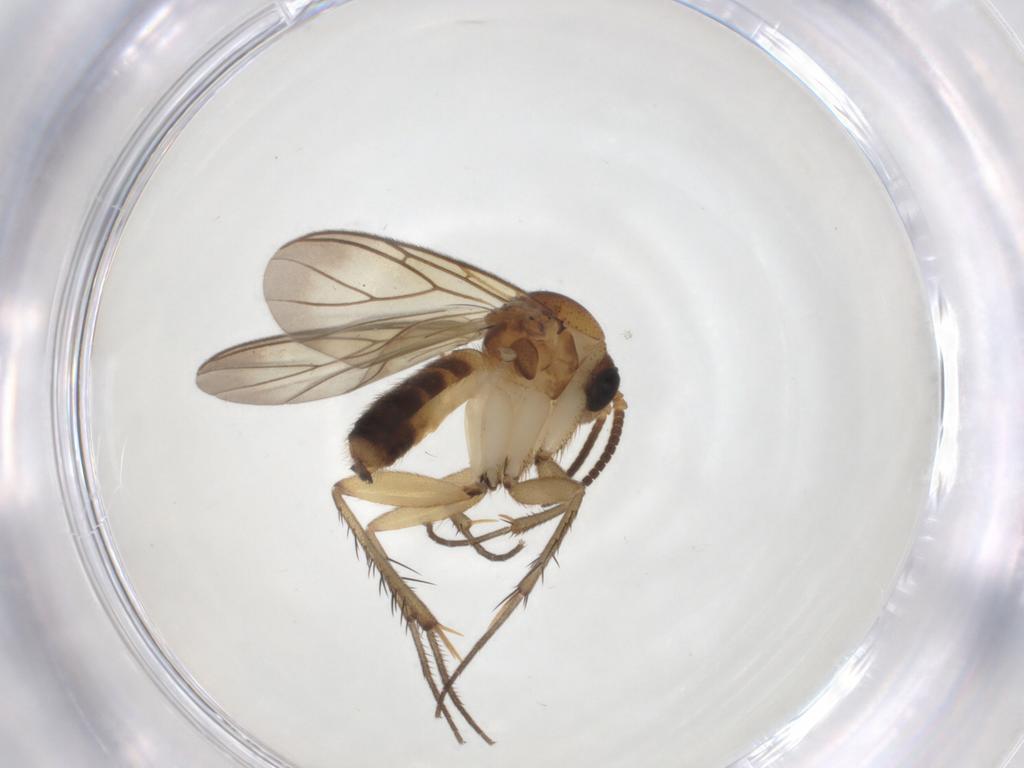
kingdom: Animalia
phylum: Arthropoda
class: Insecta
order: Diptera
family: Mycetophilidae
